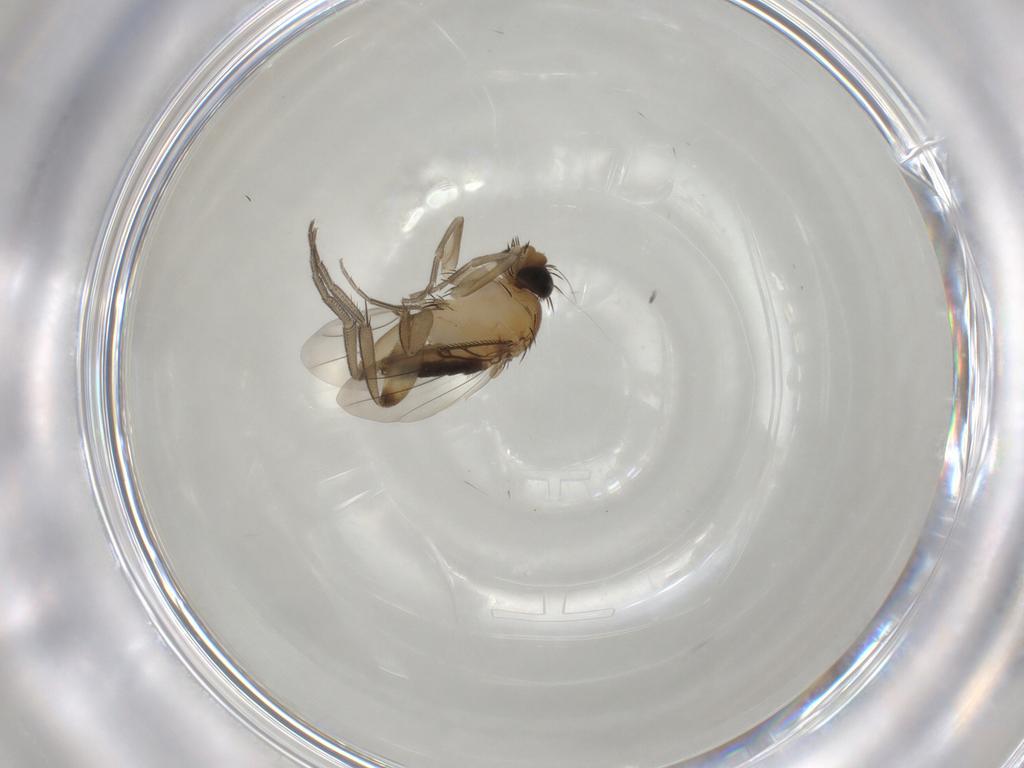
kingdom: Animalia
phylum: Arthropoda
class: Insecta
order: Diptera
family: Phoridae
